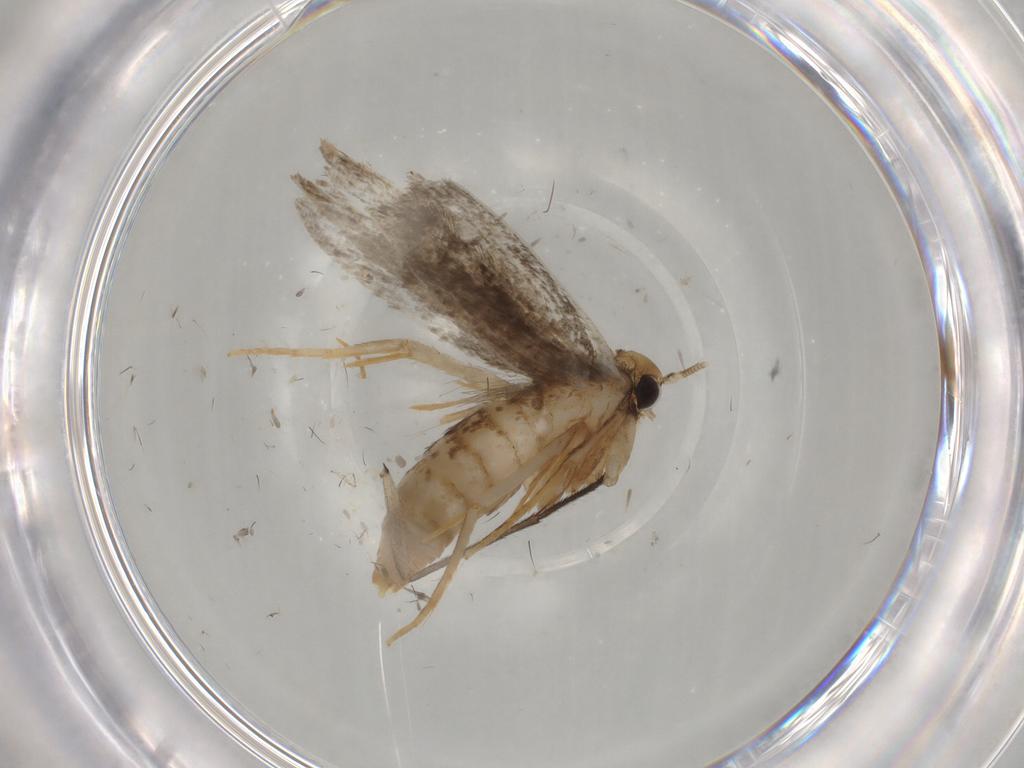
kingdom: Animalia
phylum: Arthropoda
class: Insecta
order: Lepidoptera
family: Tineidae
